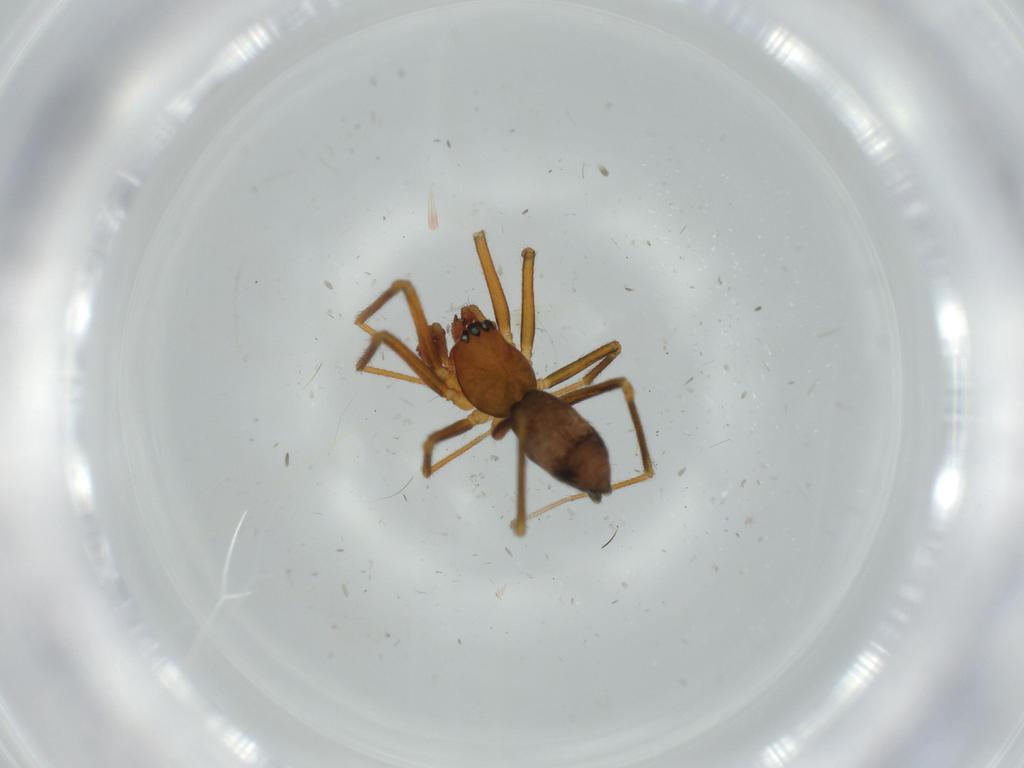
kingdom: Animalia
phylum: Arthropoda
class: Arachnida
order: Araneae
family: Linyphiidae
